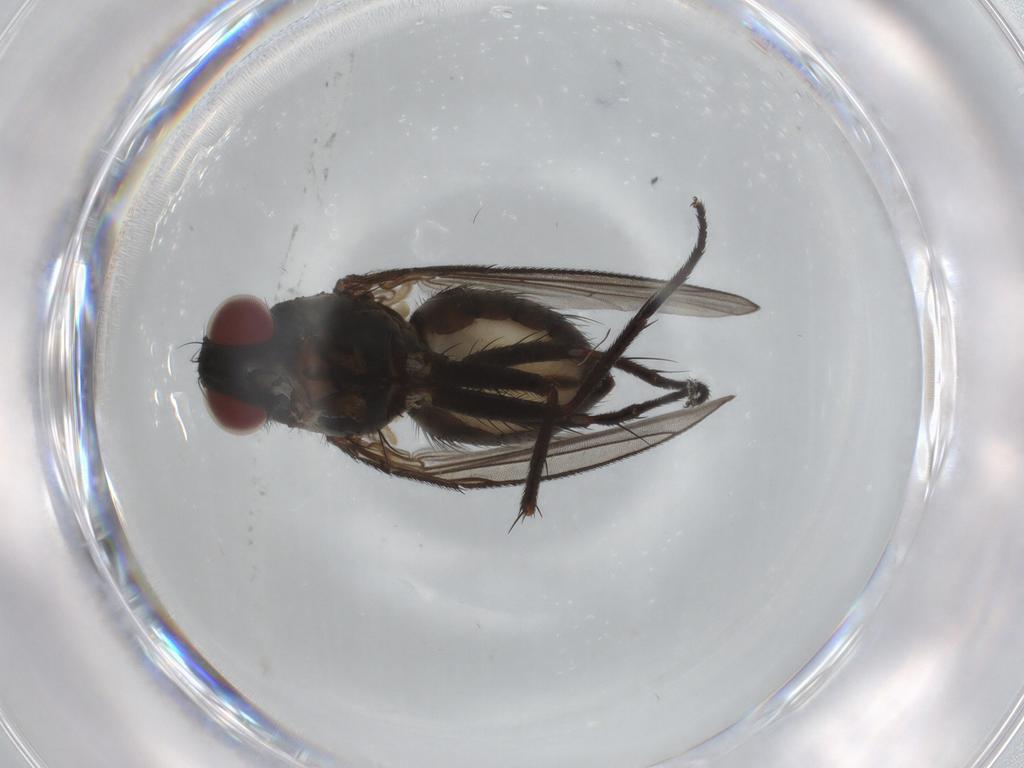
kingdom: Animalia
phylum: Arthropoda
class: Insecta
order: Diptera
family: Muscidae
